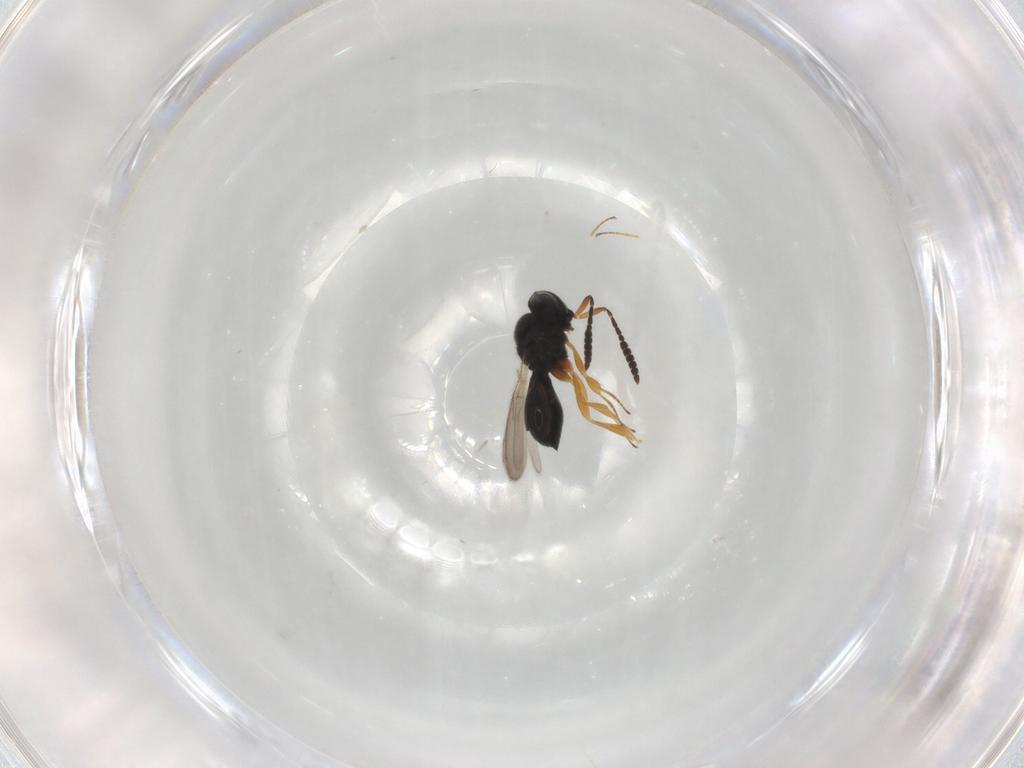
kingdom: Animalia
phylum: Arthropoda
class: Insecta
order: Hymenoptera
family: Scelionidae
